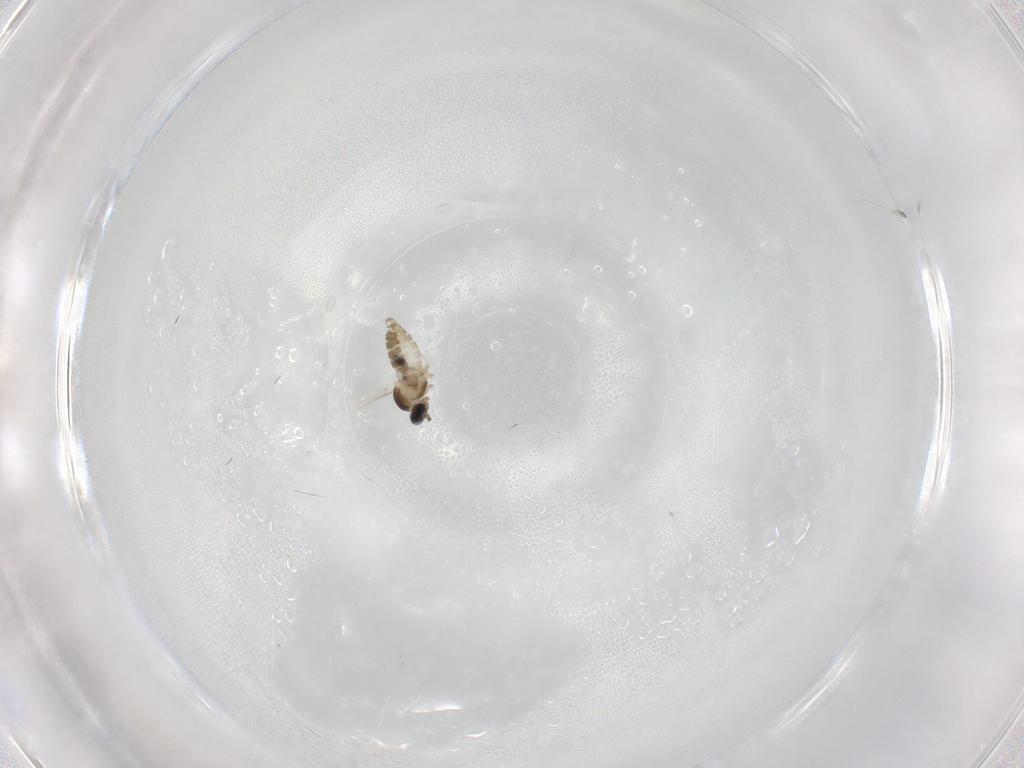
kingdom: Animalia
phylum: Arthropoda
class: Insecta
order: Diptera
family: Cecidomyiidae
